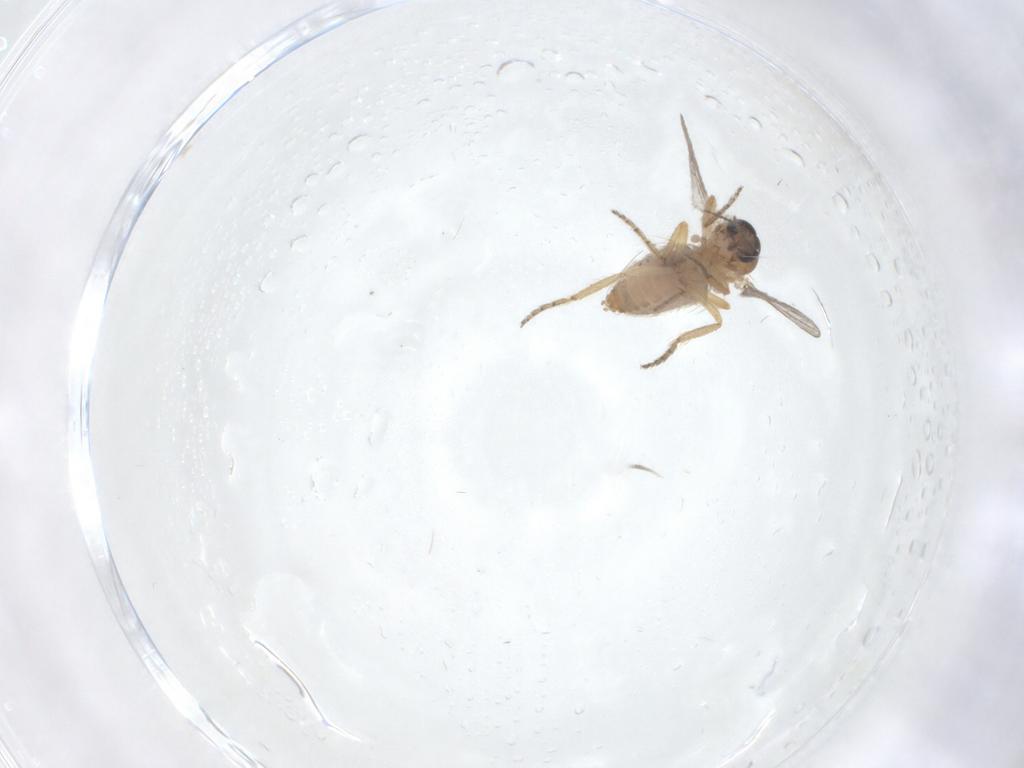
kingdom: Animalia
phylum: Arthropoda
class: Insecta
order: Diptera
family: Ceratopogonidae
